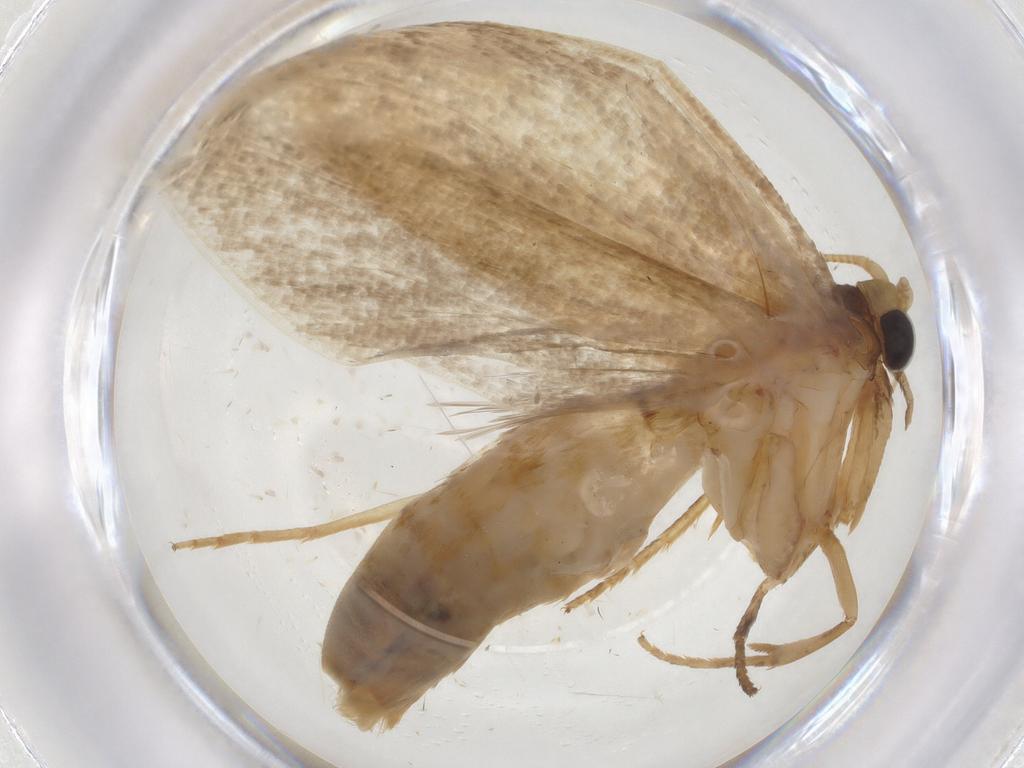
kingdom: Animalia
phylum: Arthropoda
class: Insecta
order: Lepidoptera
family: Tineidae
